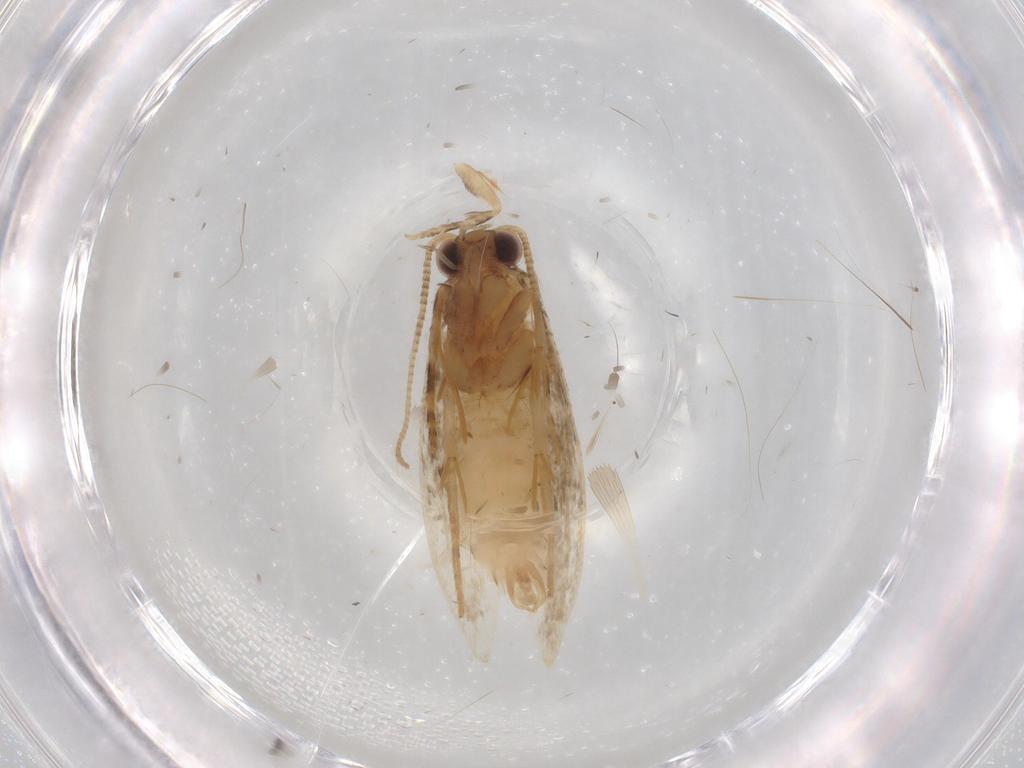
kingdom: Animalia
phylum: Arthropoda
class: Insecta
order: Lepidoptera
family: Tineidae
